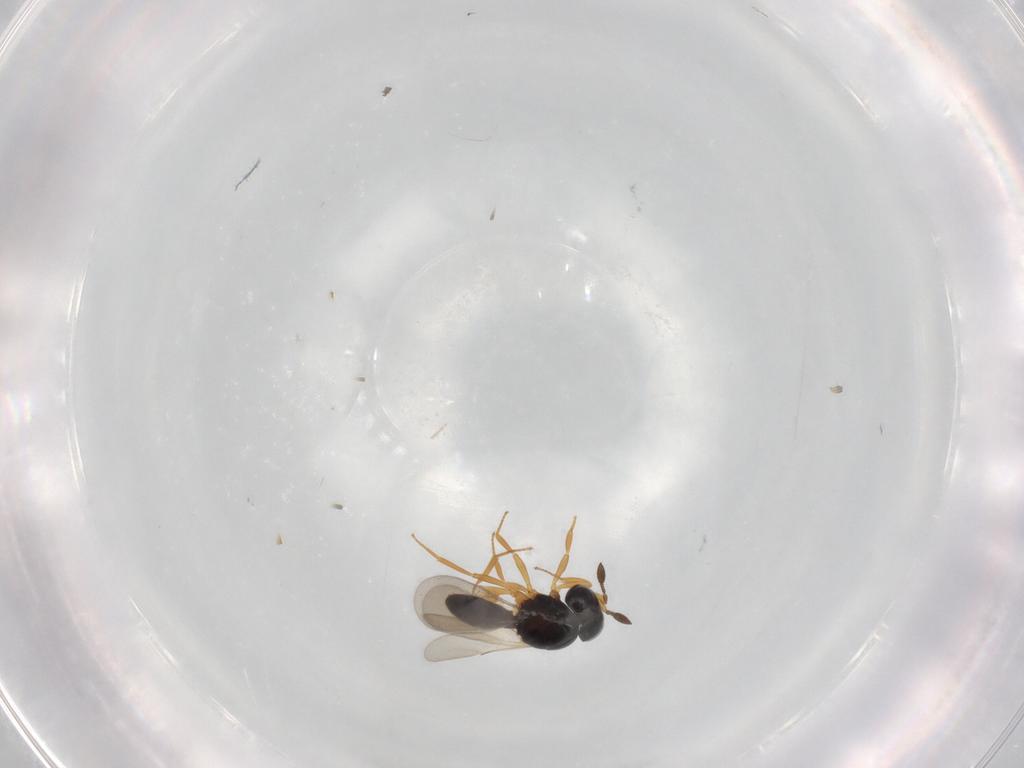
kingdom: Animalia
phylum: Arthropoda
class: Insecta
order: Hymenoptera
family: Scelionidae
